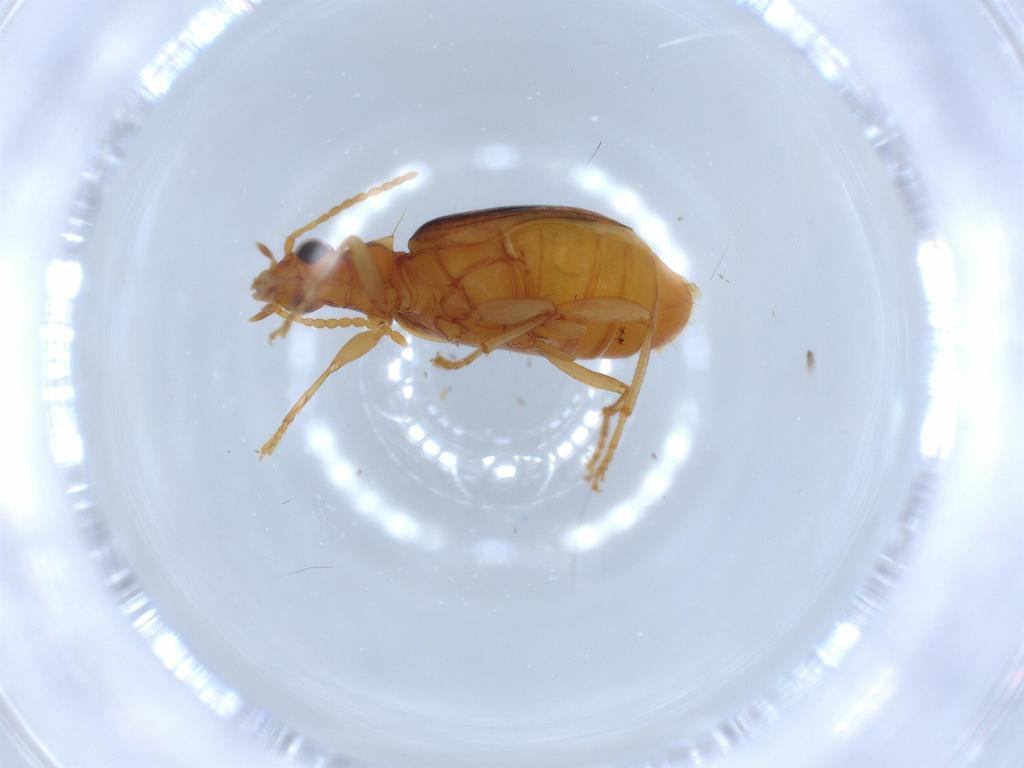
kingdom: Animalia
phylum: Arthropoda
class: Insecta
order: Coleoptera
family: Carabidae
